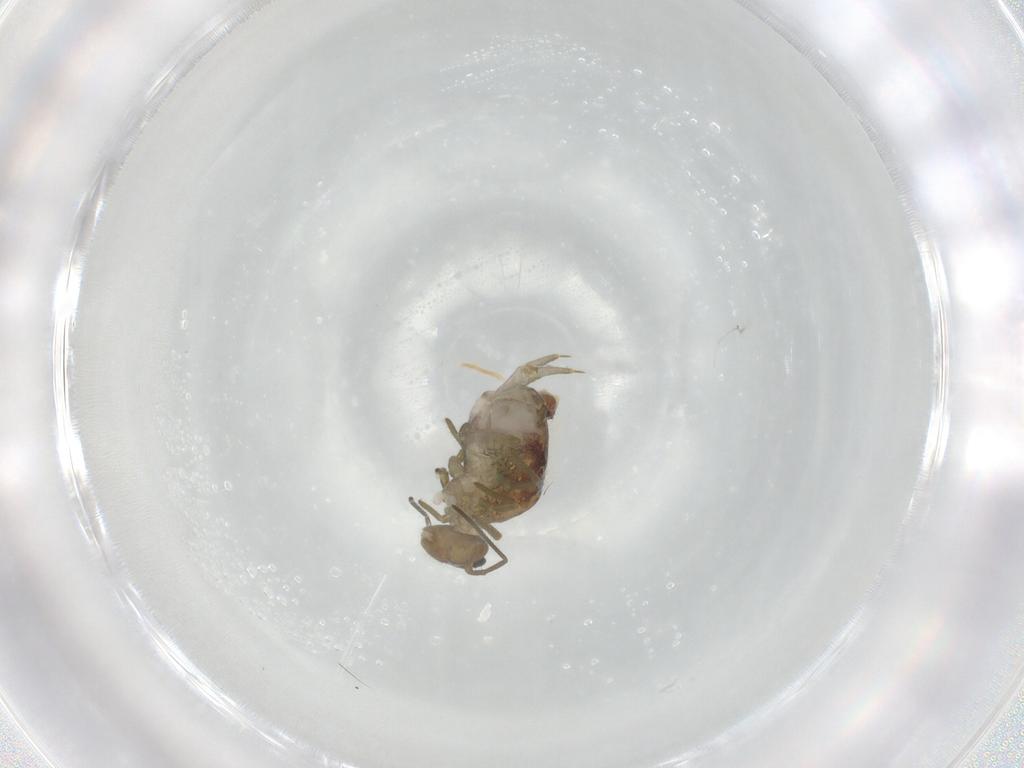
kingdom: Animalia
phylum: Arthropoda
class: Collembola
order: Symphypleona
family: Sminthuridae
